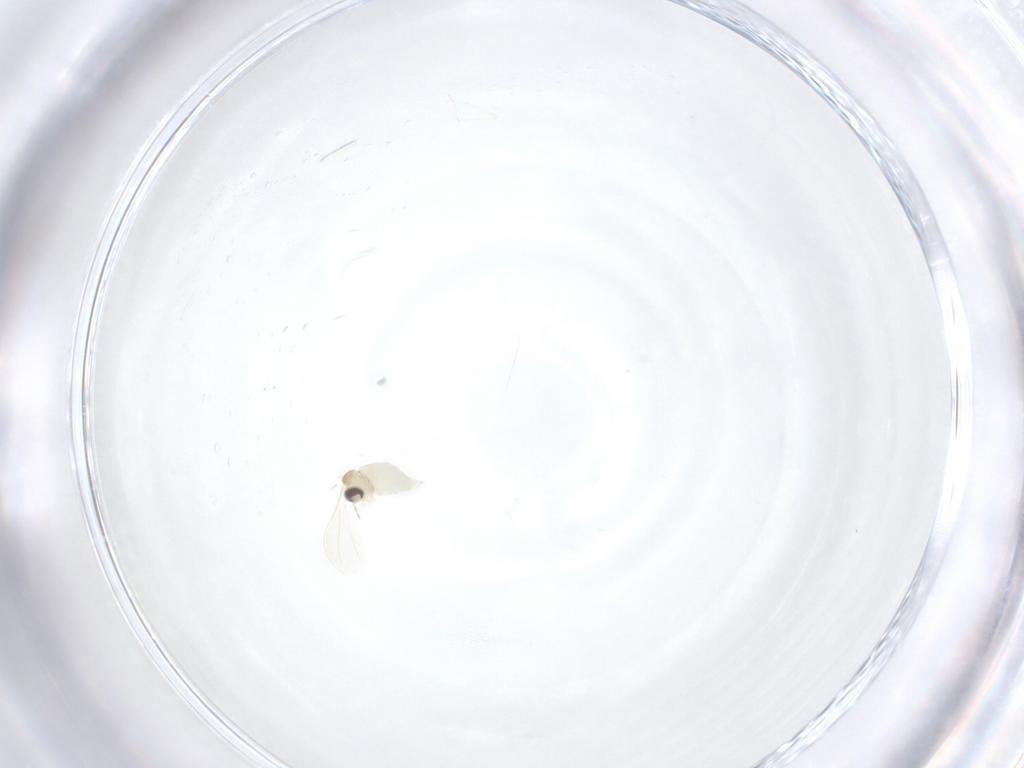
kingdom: Animalia
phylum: Arthropoda
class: Insecta
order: Diptera
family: Cecidomyiidae
